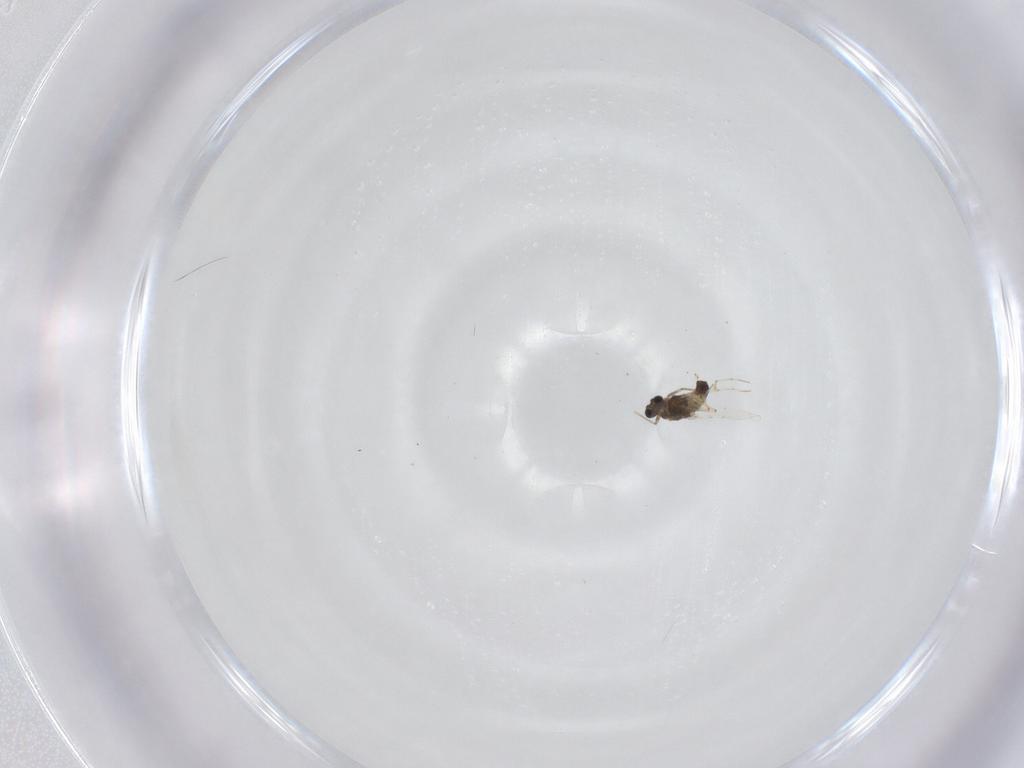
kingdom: Animalia
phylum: Arthropoda
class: Insecta
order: Diptera
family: Chironomidae
